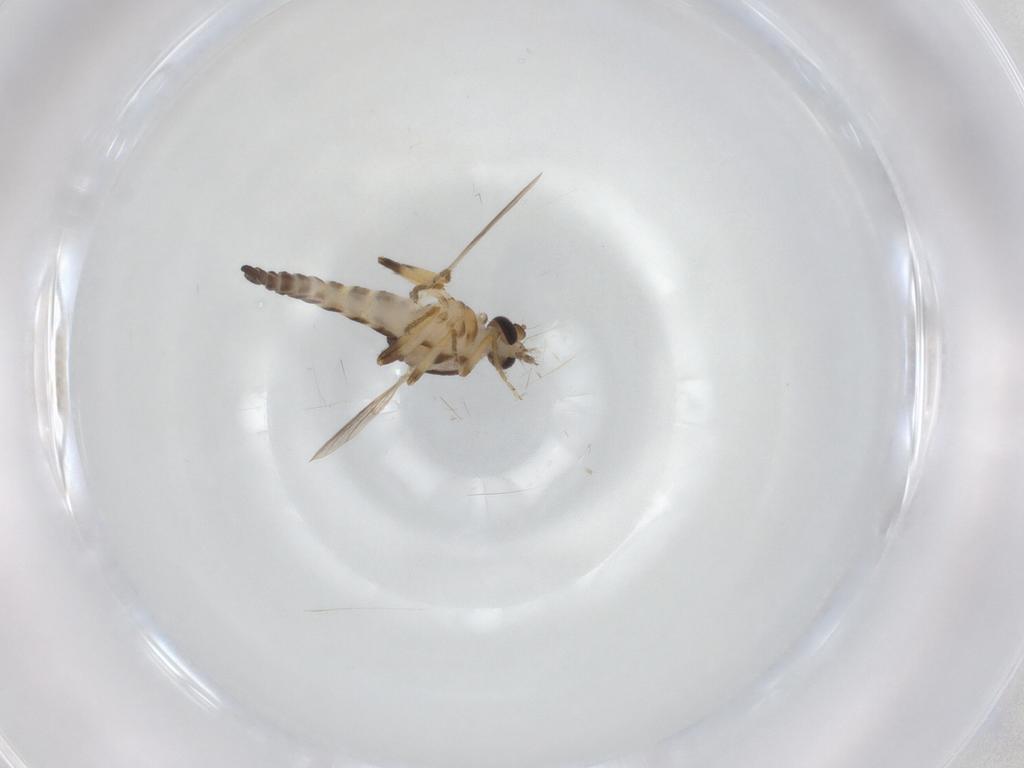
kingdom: Animalia
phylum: Arthropoda
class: Insecta
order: Diptera
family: Ceratopogonidae
